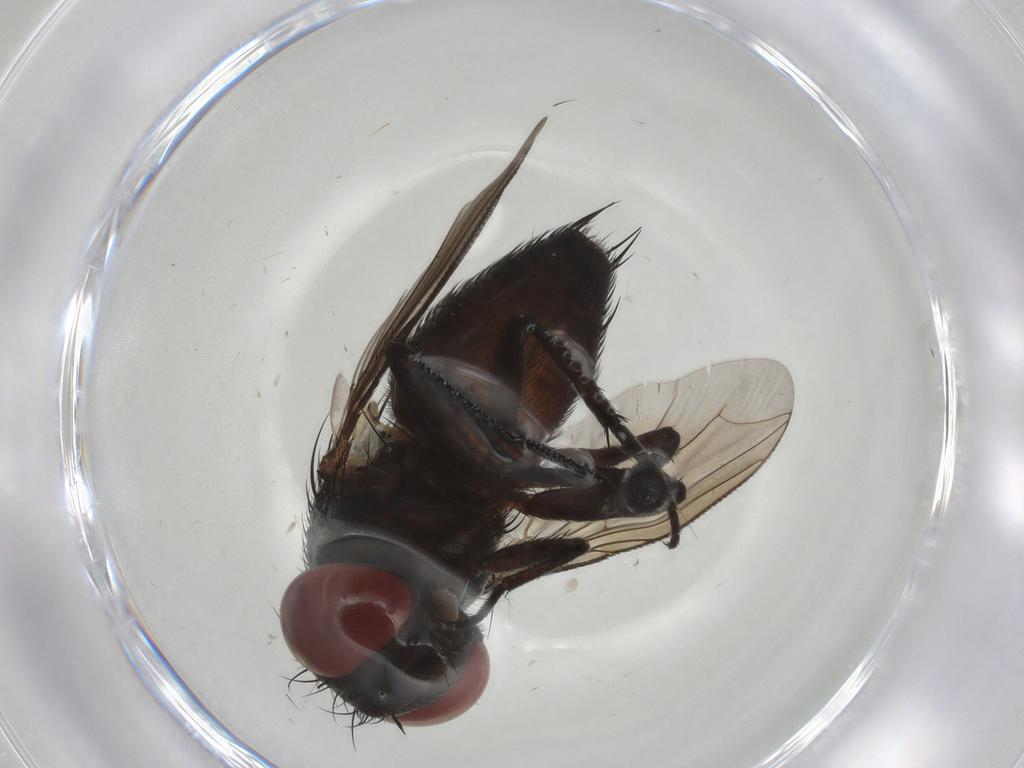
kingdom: Animalia
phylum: Arthropoda
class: Insecta
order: Diptera
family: Sarcophagidae
